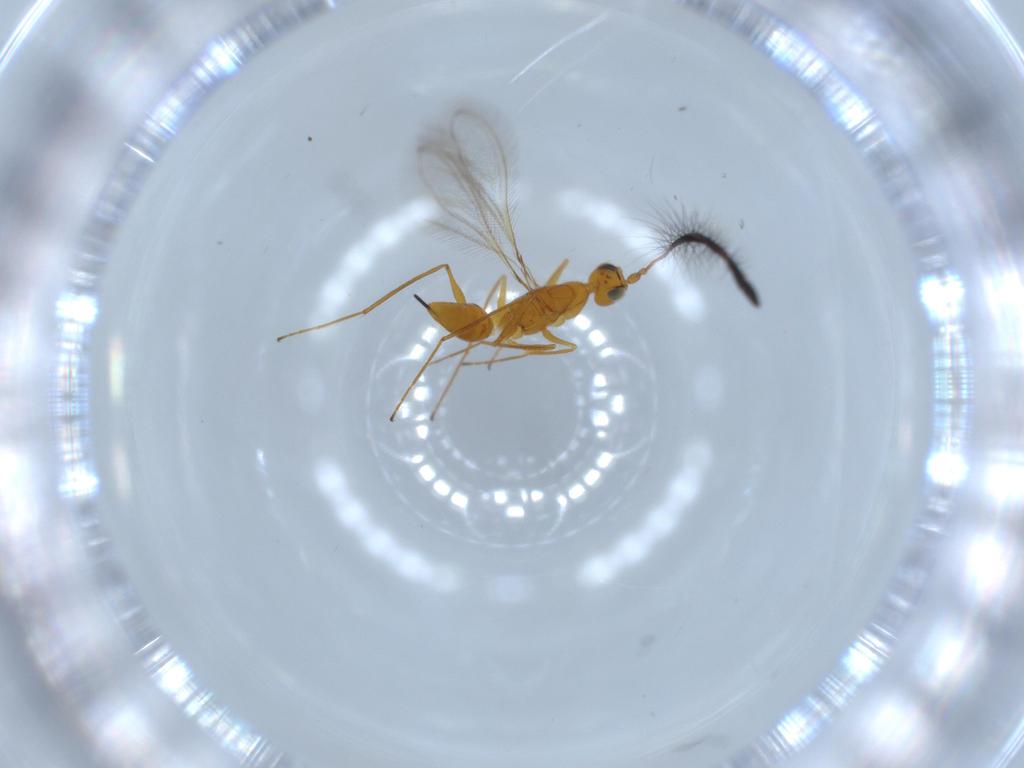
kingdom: Animalia
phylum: Arthropoda
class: Insecta
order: Hymenoptera
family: Mymaridae
